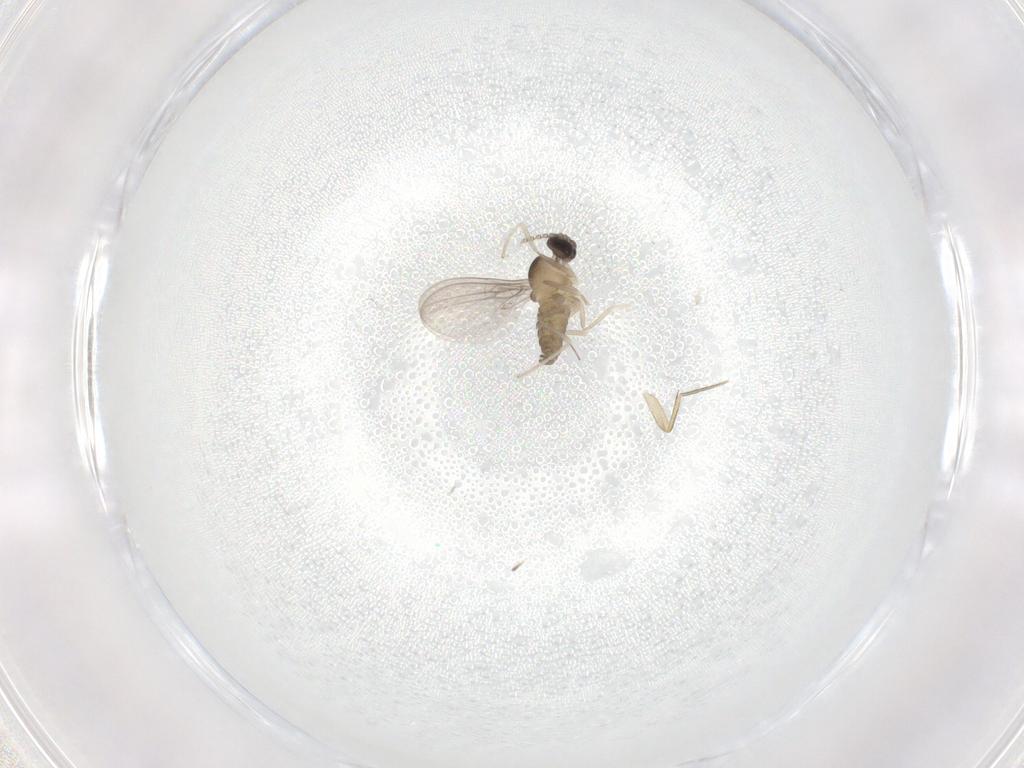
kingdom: Animalia
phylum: Arthropoda
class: Insecta
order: Diptera
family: Cecidomyiidae
